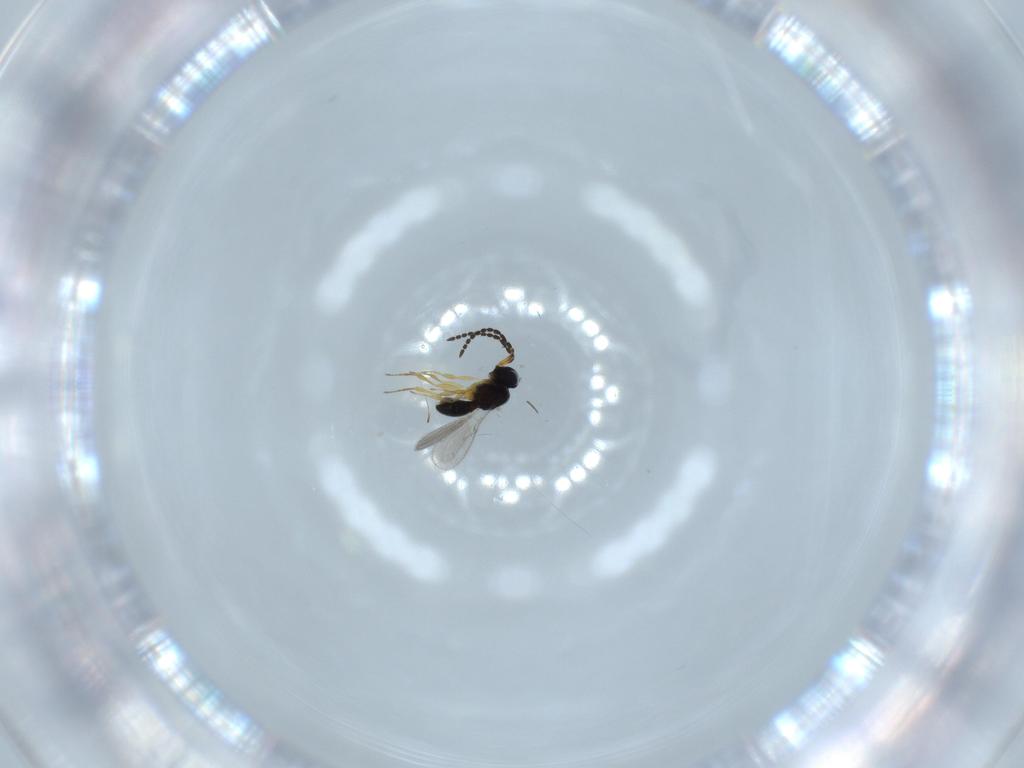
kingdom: Animalia
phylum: Arthropoda
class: Insecta
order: Hymenoptera
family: Scelionidae
